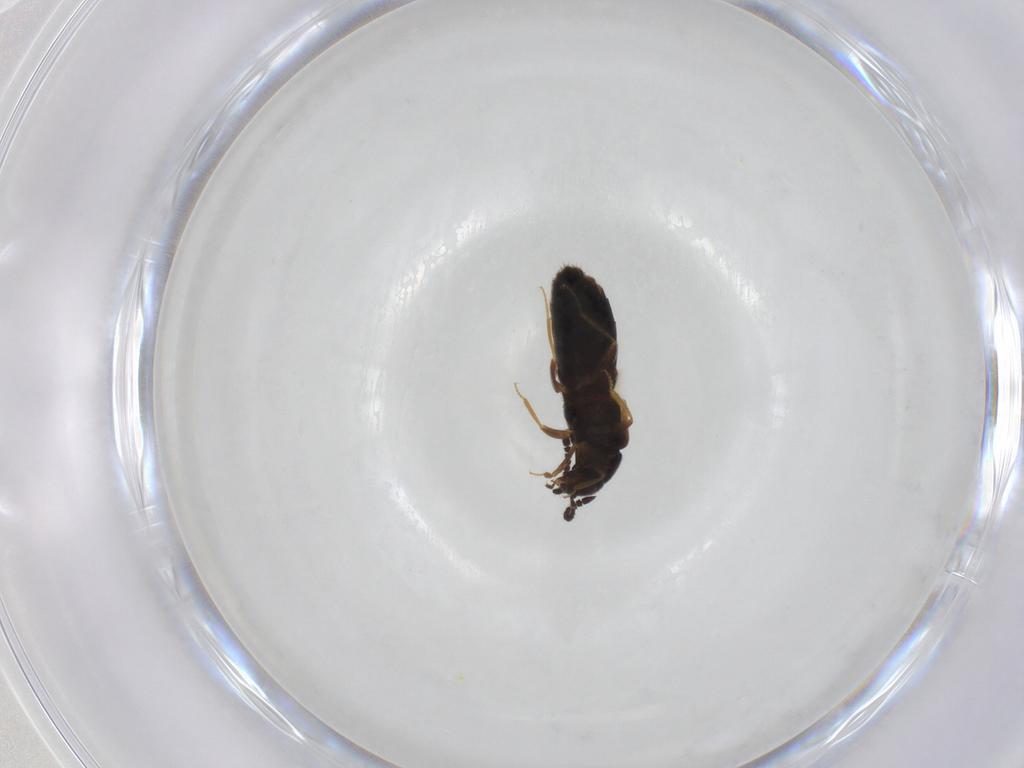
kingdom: Animalia
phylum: Arthropoda
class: Insecta
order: Coleoptera
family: Staphylinidae
